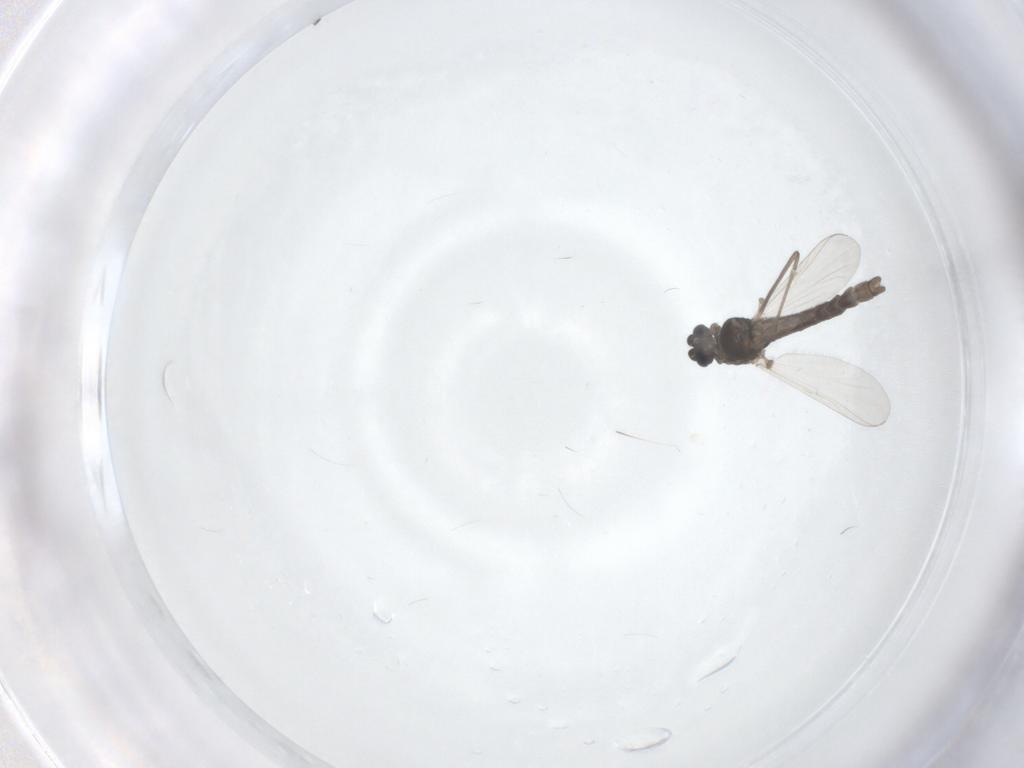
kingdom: Animalia
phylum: Arthropoda
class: Insecta
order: Diptera
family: Chironomidae
